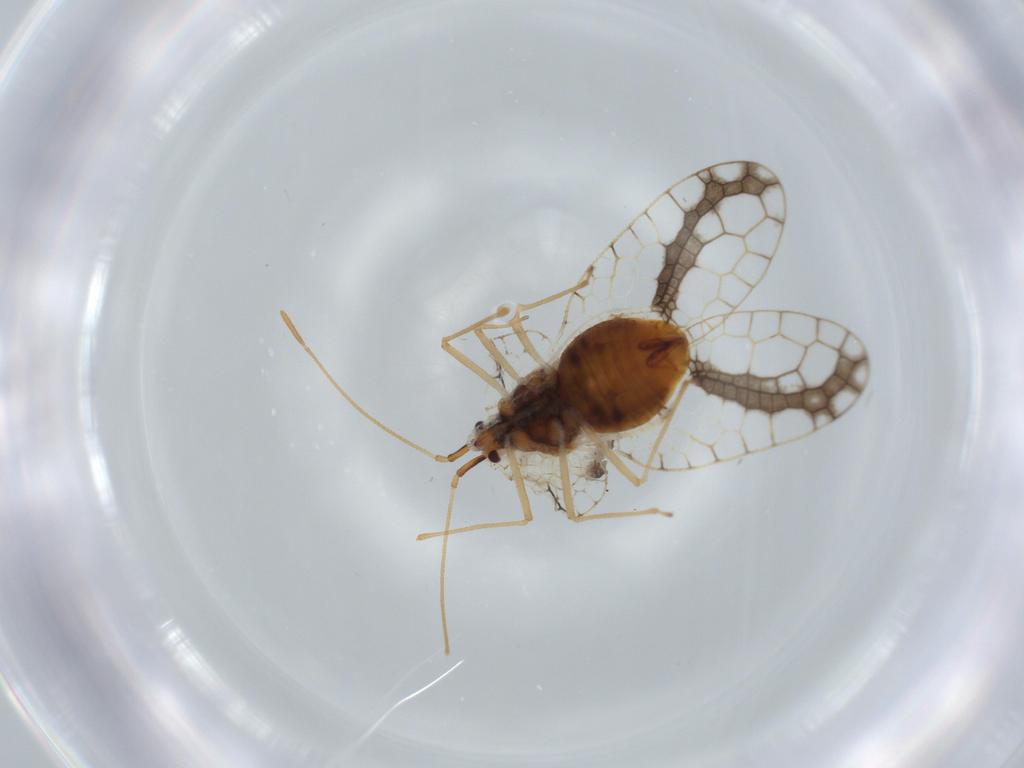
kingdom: Animalia
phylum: Arthropoda
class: Insecta
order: Hemiptera
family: Tingidae
